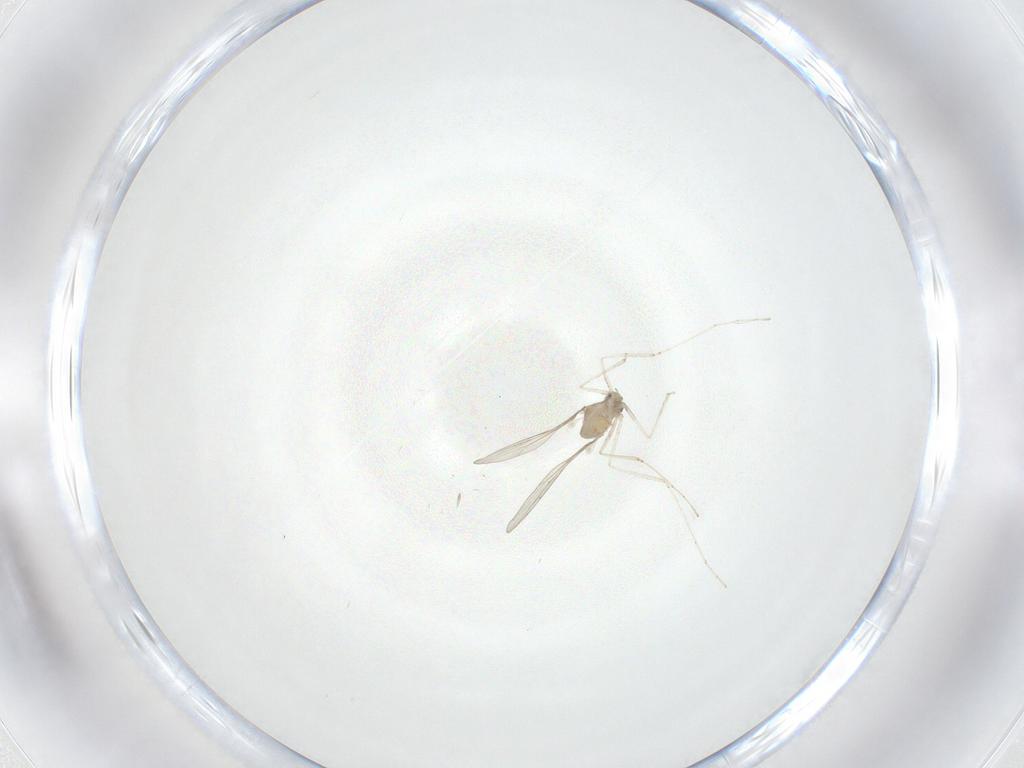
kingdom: Animalia
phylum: Arthropoda
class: Insecta
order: Diptera
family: Cecidomyiidae
